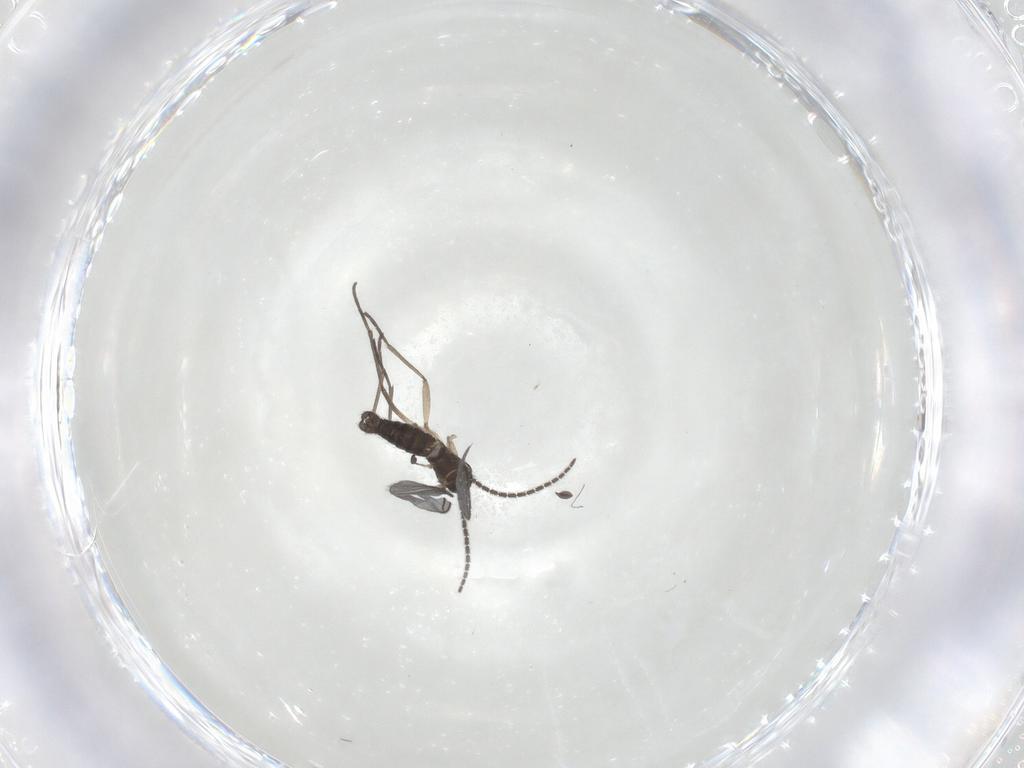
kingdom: Animalia
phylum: Arthropoda
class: Insecta
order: Diptera
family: Sciaridae
